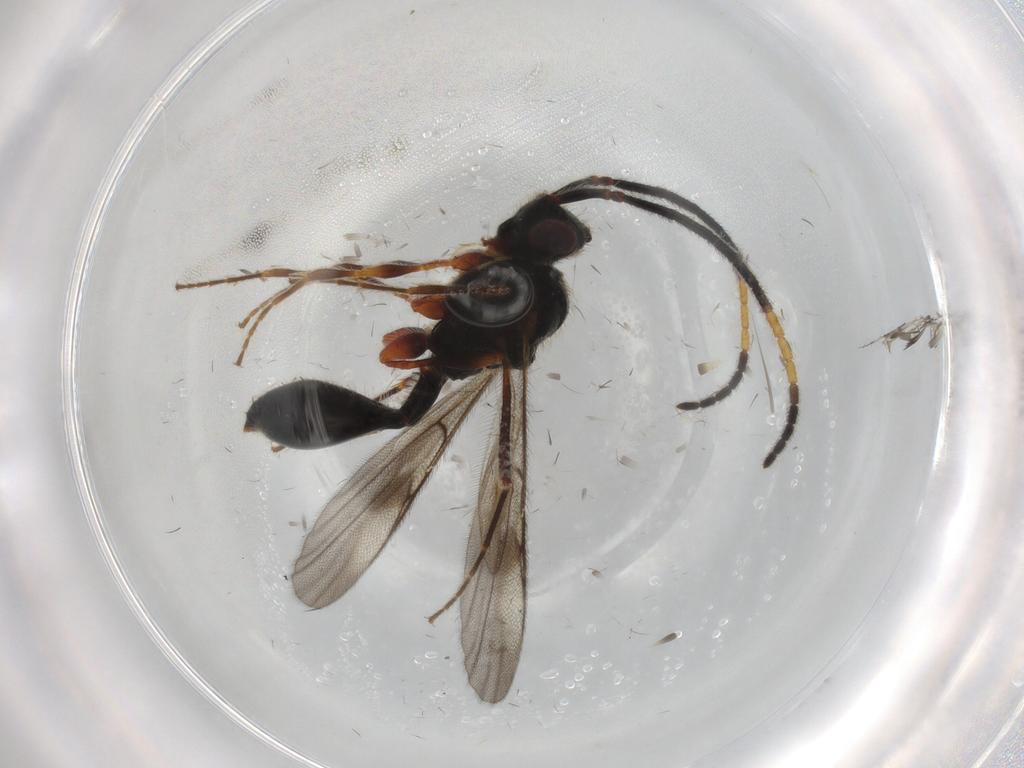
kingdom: Animalia
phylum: Arthropoda
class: Insecta
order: Hymenoptera
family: Diapriidae
